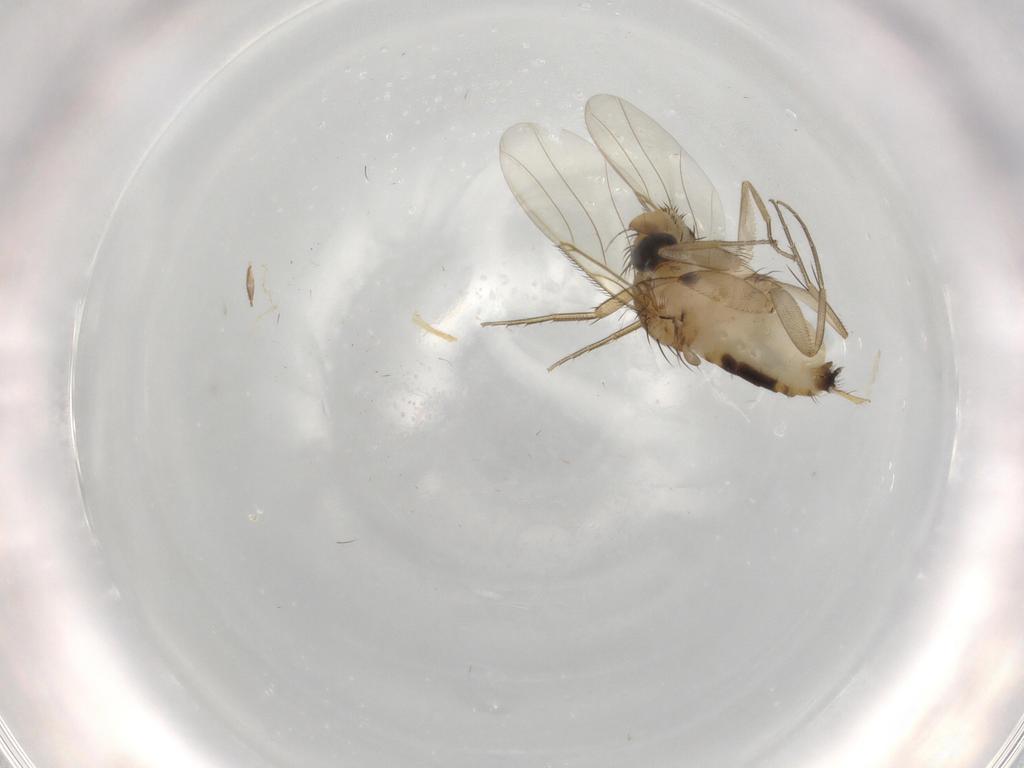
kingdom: Animalia
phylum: Arthropoda
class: Insecta
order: Diptera
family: Phoridae
